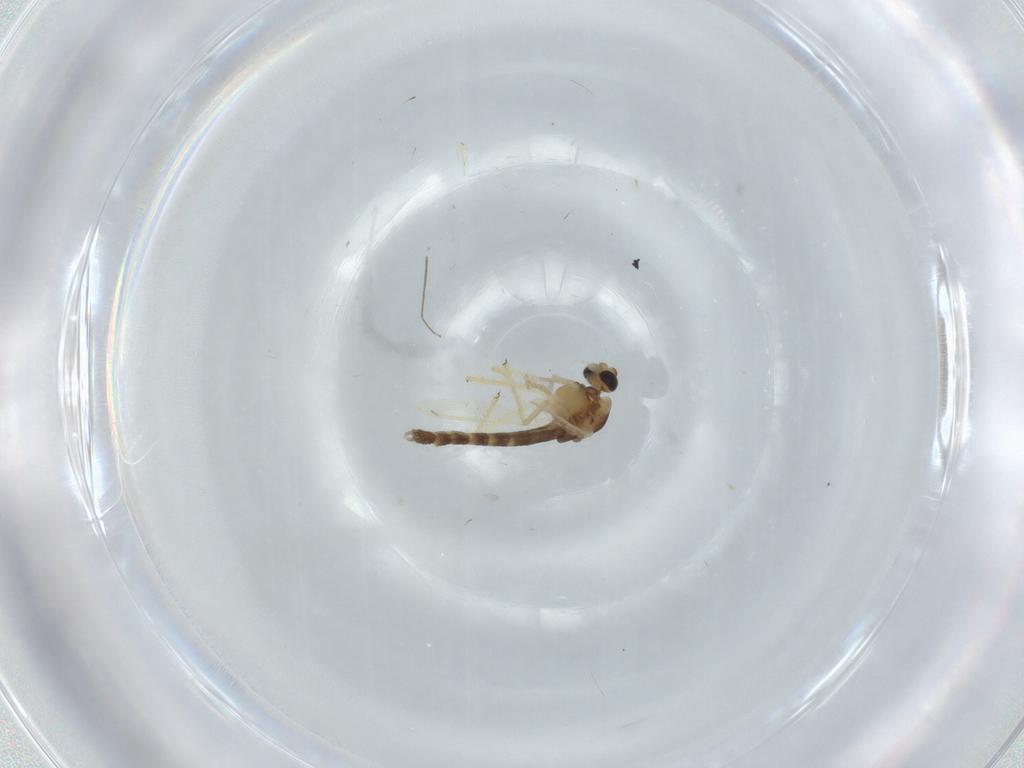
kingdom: Animalia
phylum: Arthropoda
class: Insecta
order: Diptera
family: Chironomidae
